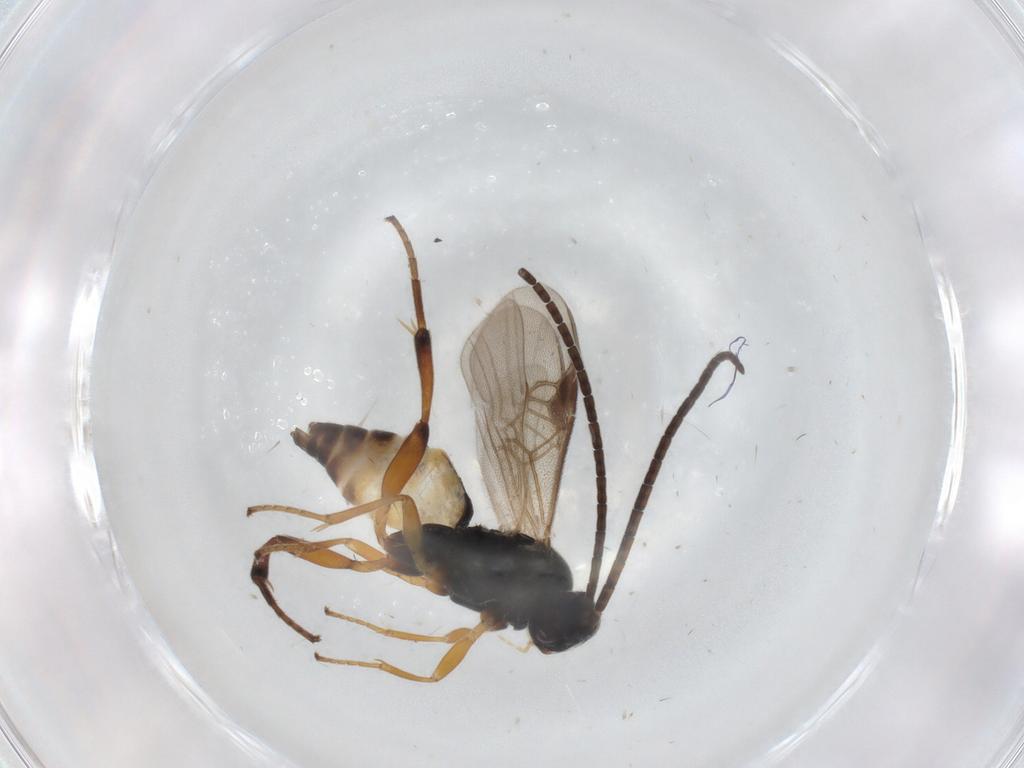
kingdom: Animalia
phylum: Arthropoda
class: Insecta
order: Hymenoptera
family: Braconidae
